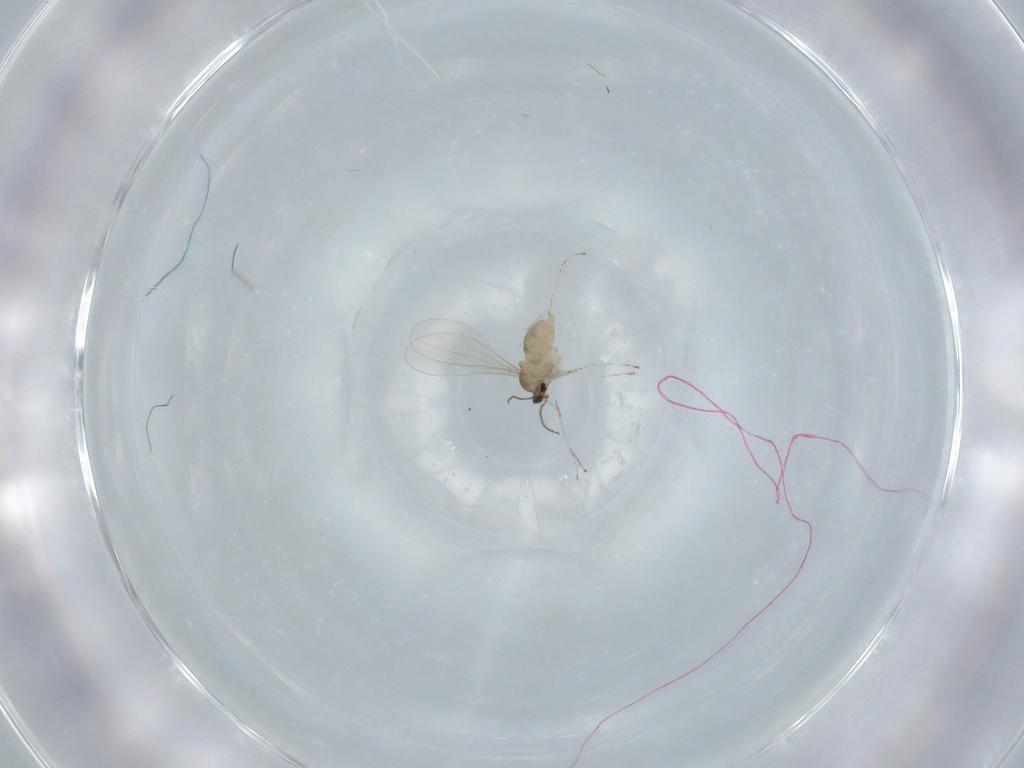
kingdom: Animalia
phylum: Arthropoda
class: Insecta
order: Diptera
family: Cecidomyiidae
